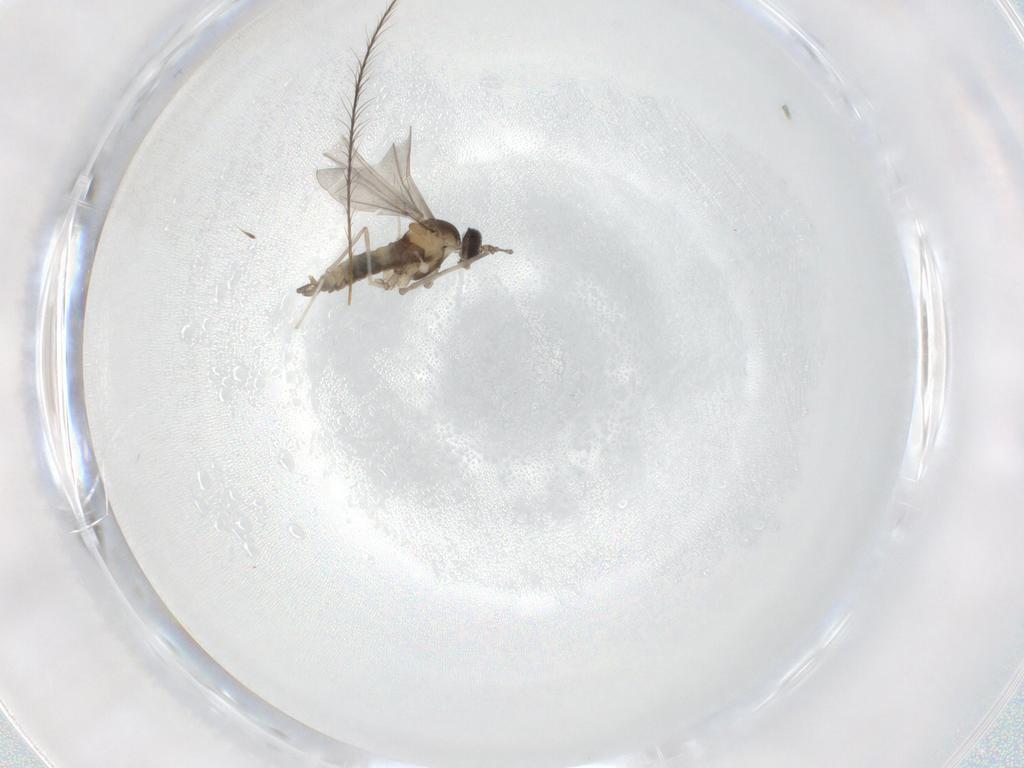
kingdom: Animalia
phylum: Arthropoda
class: Insecta
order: Diptera
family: Cecidomyiidae
